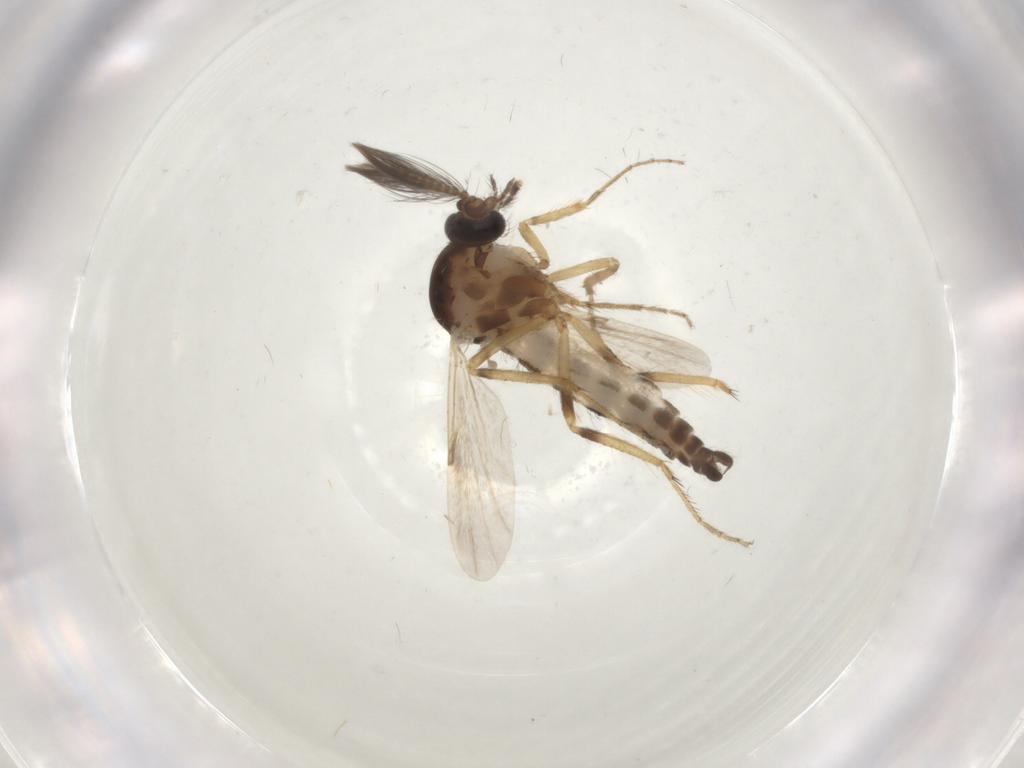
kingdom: Animalia
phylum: Arthropoda
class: Insecta
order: Diptera
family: Ceratopogonidae
